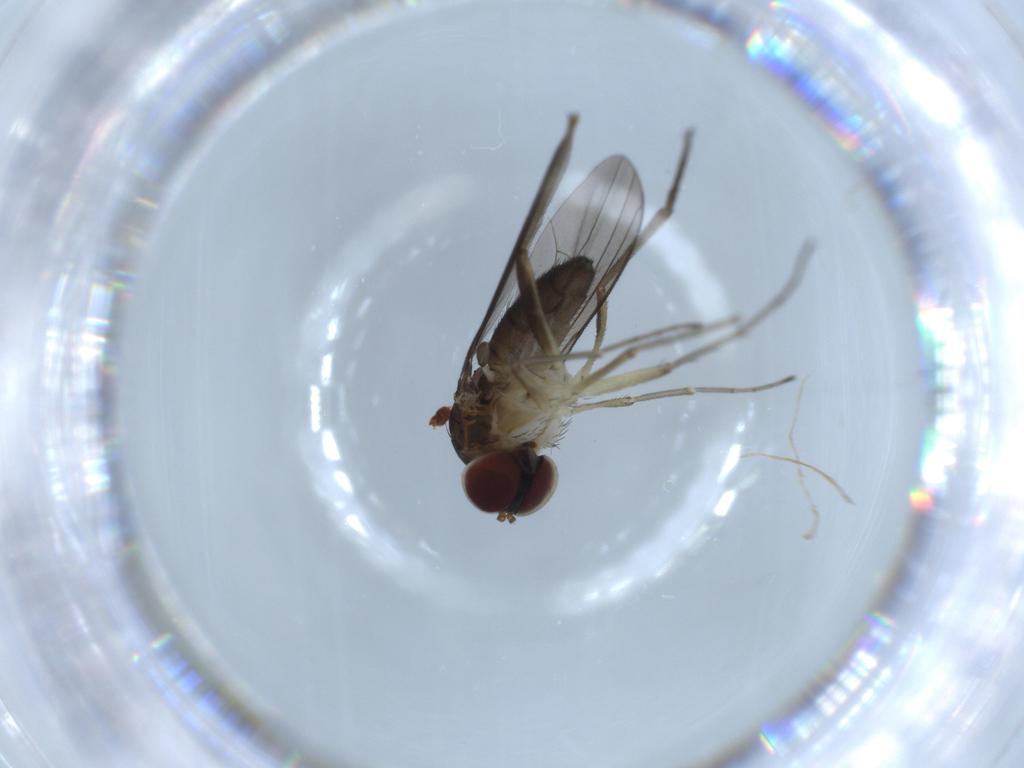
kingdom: Animalia
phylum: Arthropoda
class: Insecta
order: Diptera
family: Dolichopodidae
